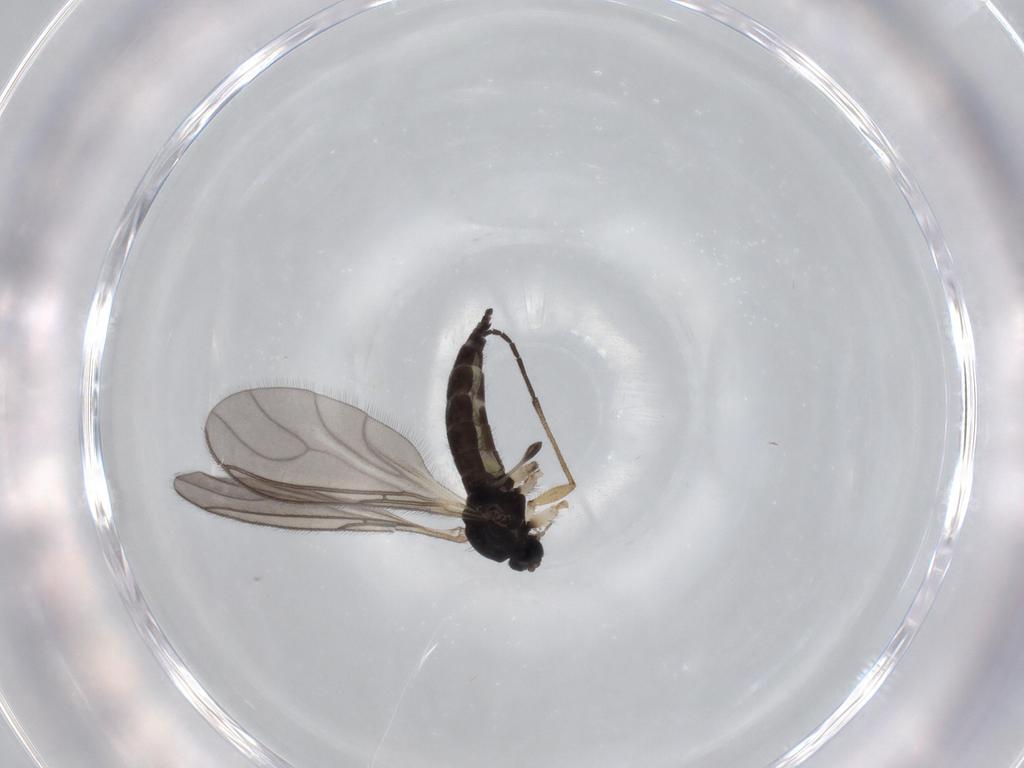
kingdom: Animalia
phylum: Arthropoda
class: Insecta
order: Diptera
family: Sciaridae
